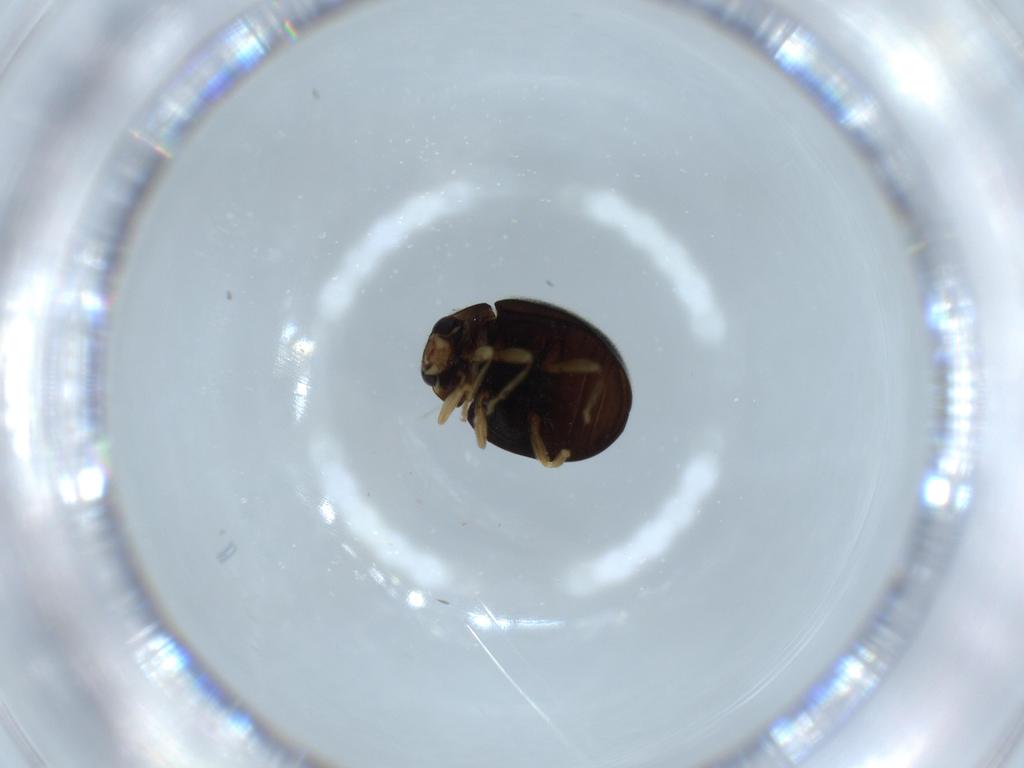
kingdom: Animalia
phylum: Arthropoda
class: Insecta
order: Coleoptera
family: Coccinellidae
